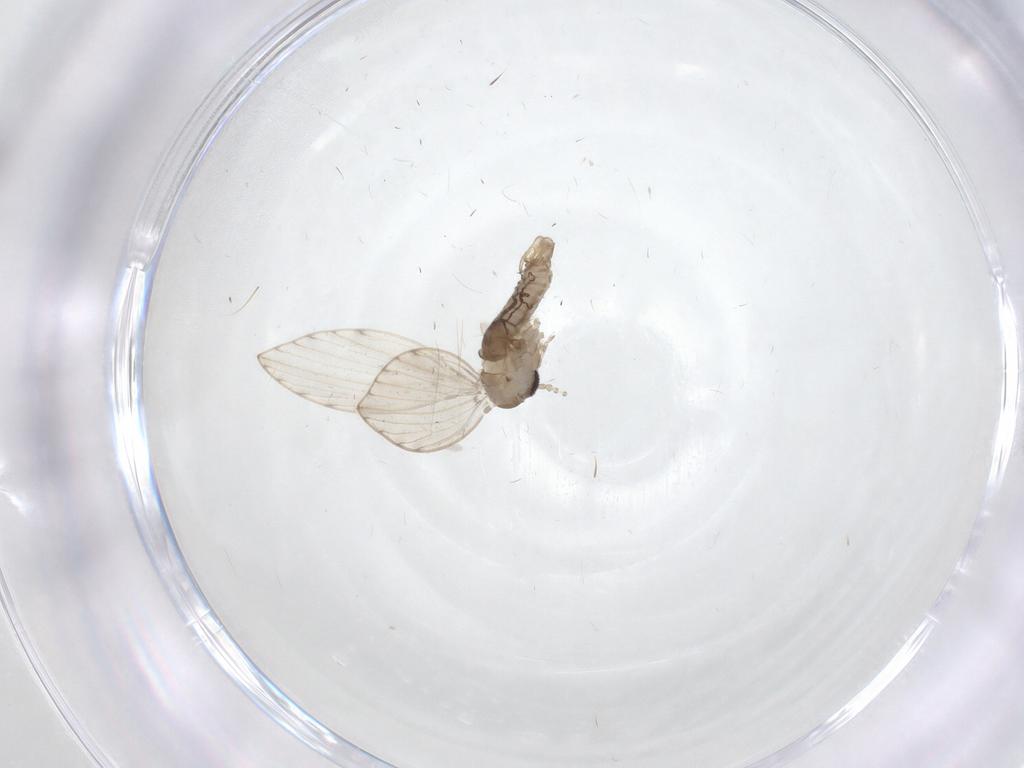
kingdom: Animalia
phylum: Arthropoda
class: Insecta
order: Diptera
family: Psychodidae
